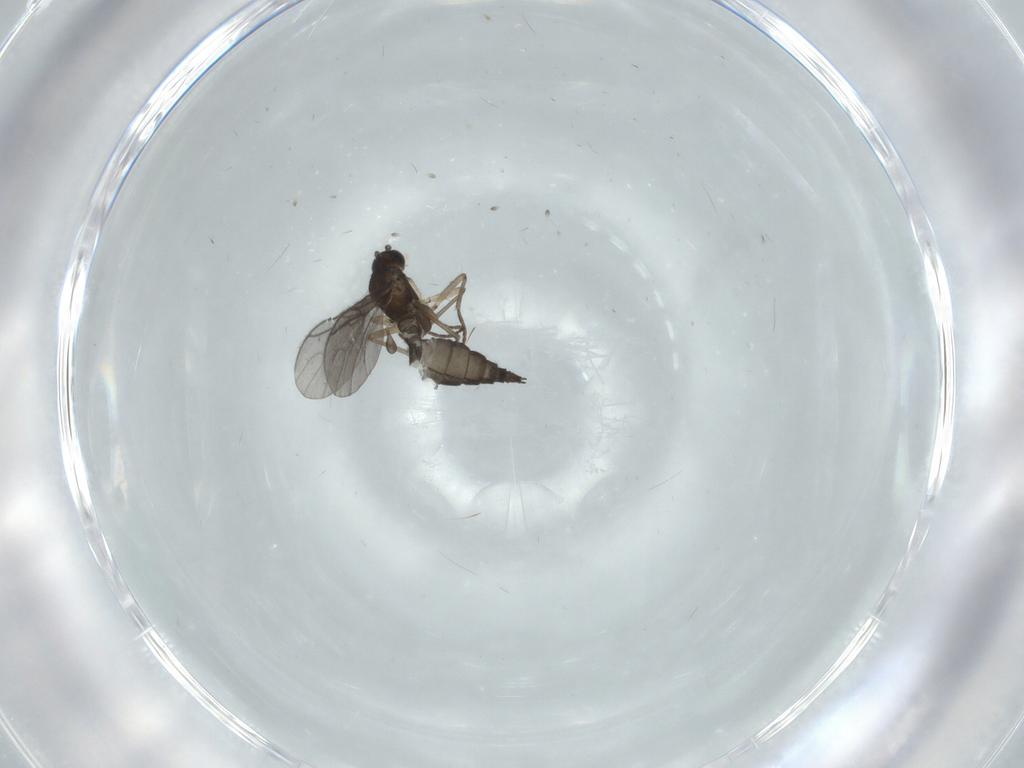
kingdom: Animalia
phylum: Arthropoda
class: Insecta
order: Diptera
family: Sciaridae
